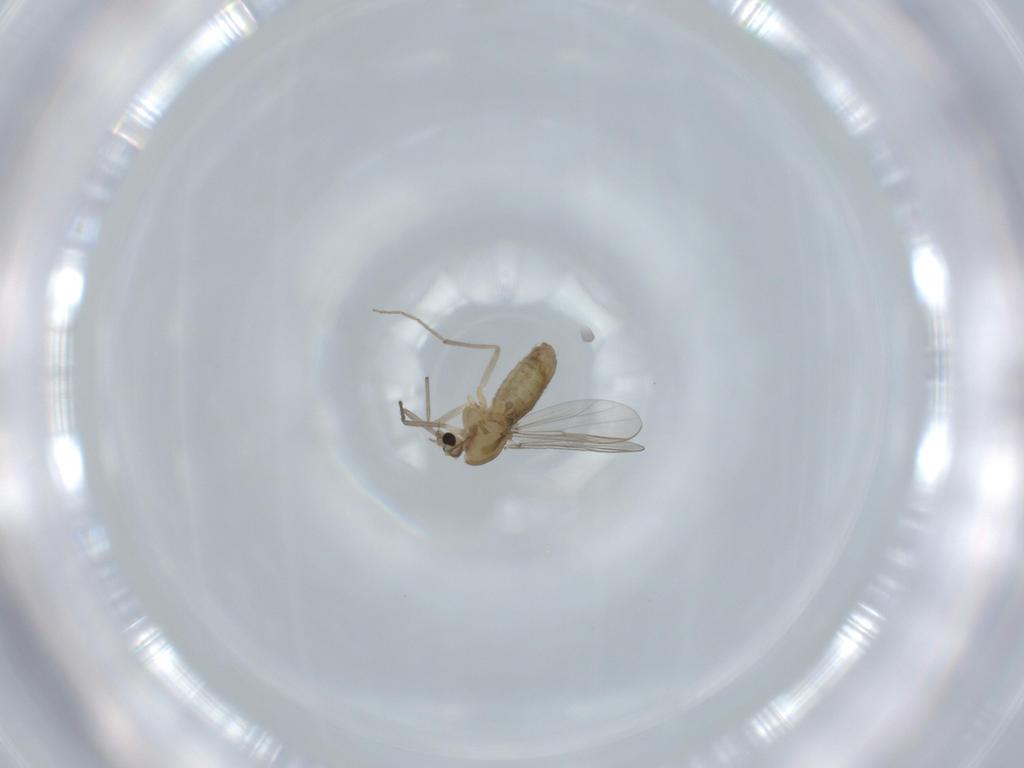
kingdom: Animalia
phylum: Arthropoda
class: Insecta
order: Diptera
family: Chironomidae
